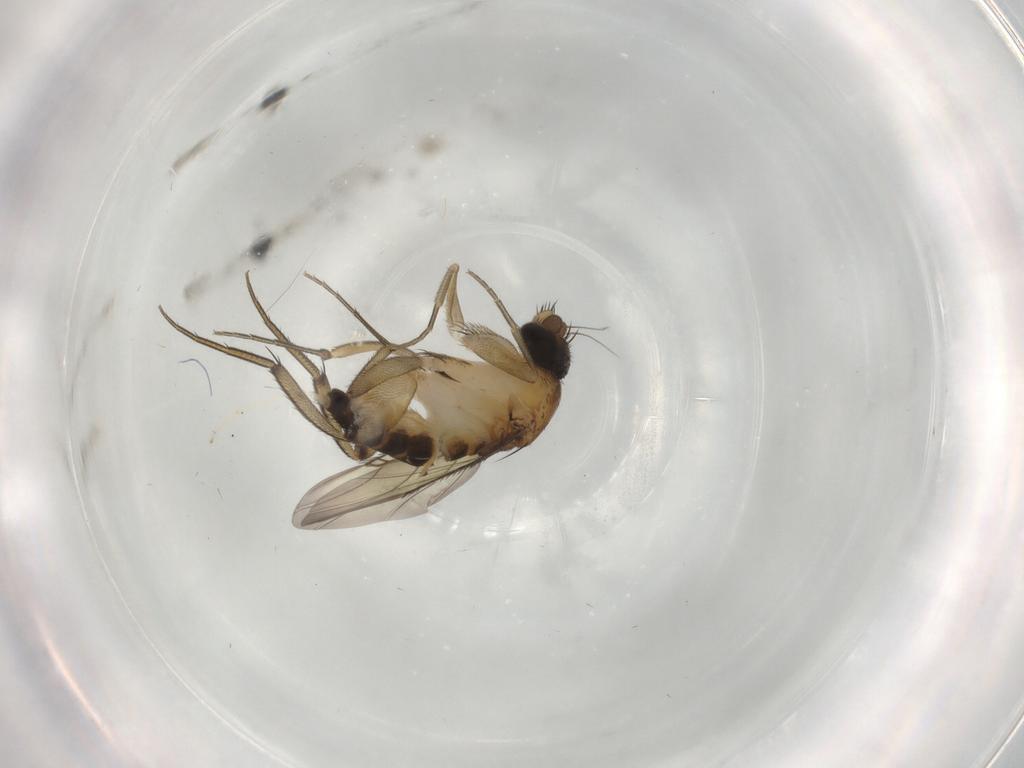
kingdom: Animalia
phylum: Arthropoda
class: Insecta
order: Diptera
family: Phoridae
